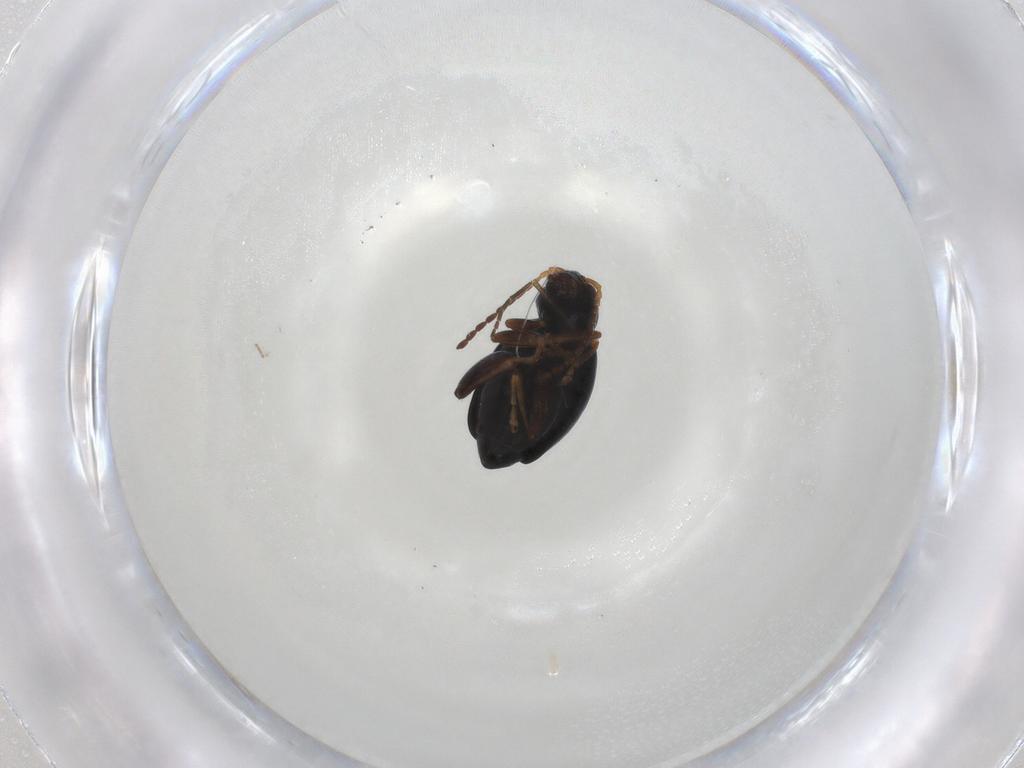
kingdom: Animalia
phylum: Arthropoda
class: Insecta
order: Coleoptera
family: Chrysomelidae
